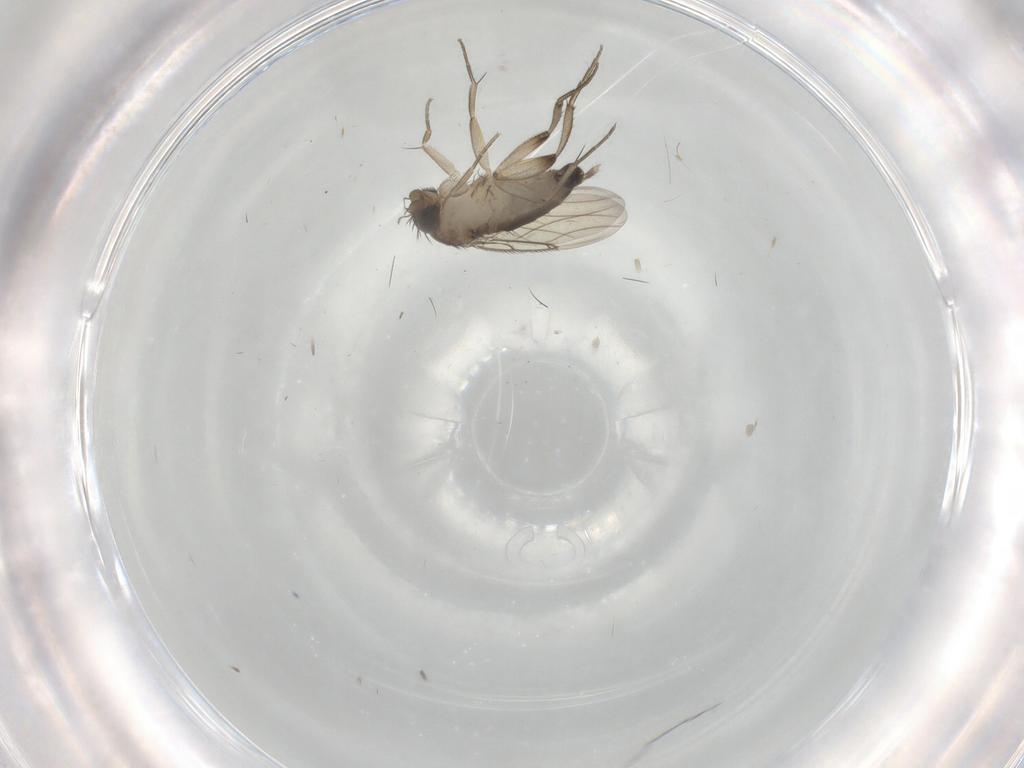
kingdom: Animalia
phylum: Arthropoda
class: Insecta
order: Diptera
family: Phoridae
